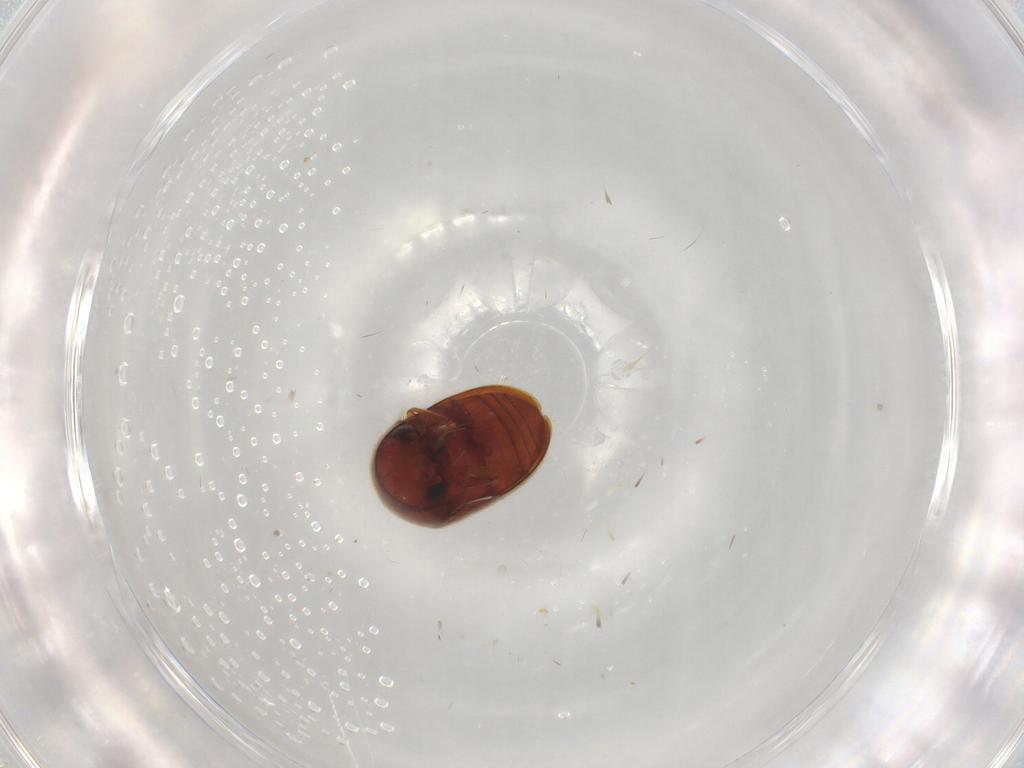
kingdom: Animalia
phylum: Arthropoda
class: Insecta
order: Coleoptera
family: Ptinidae
